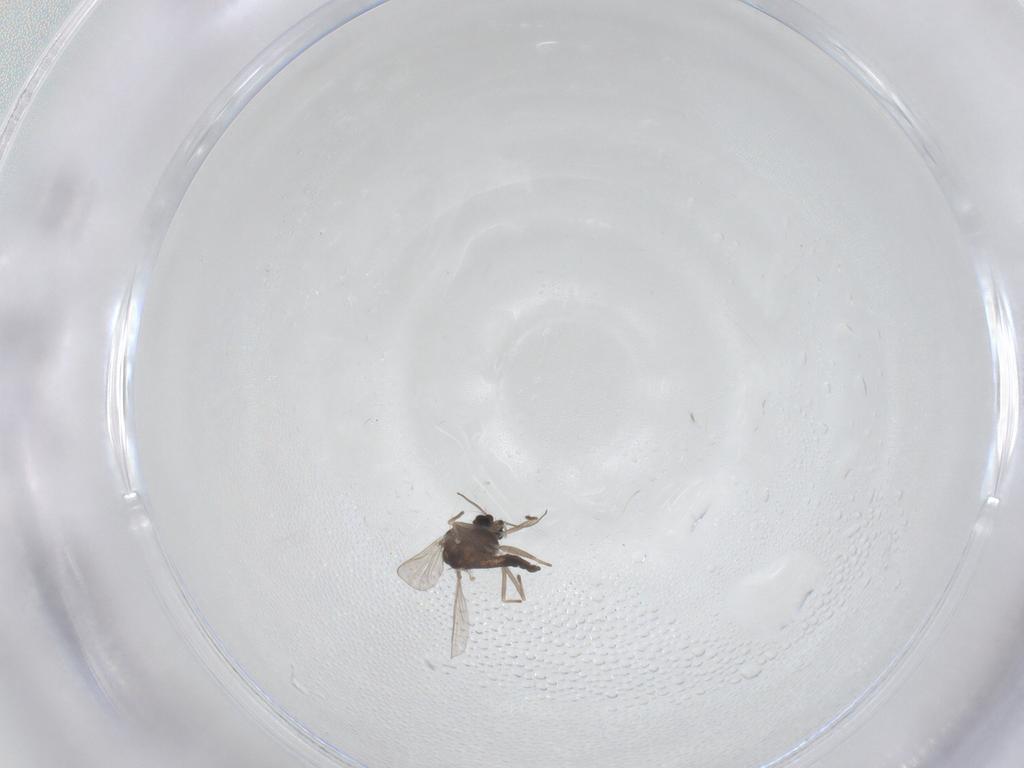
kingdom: Animalia
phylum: Arthropoda
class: Insecta
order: Diptera
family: Chironomidae
